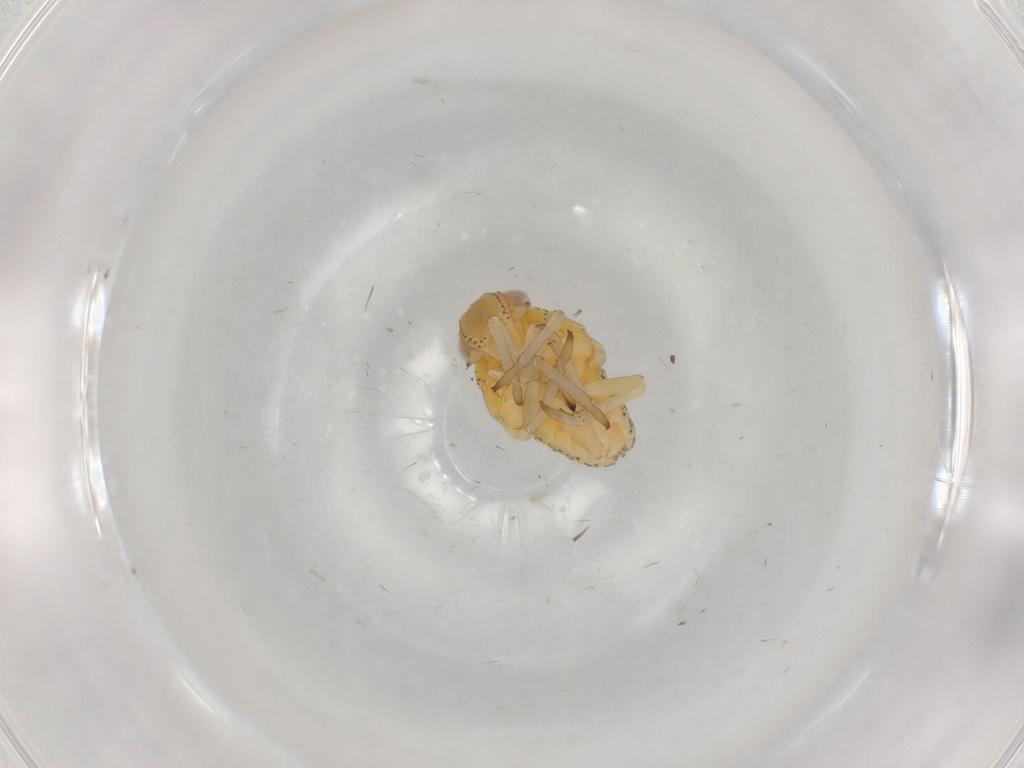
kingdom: Animalia
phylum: Arthropoda
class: Insecta
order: Hemiptera
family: Tropiduchidae
